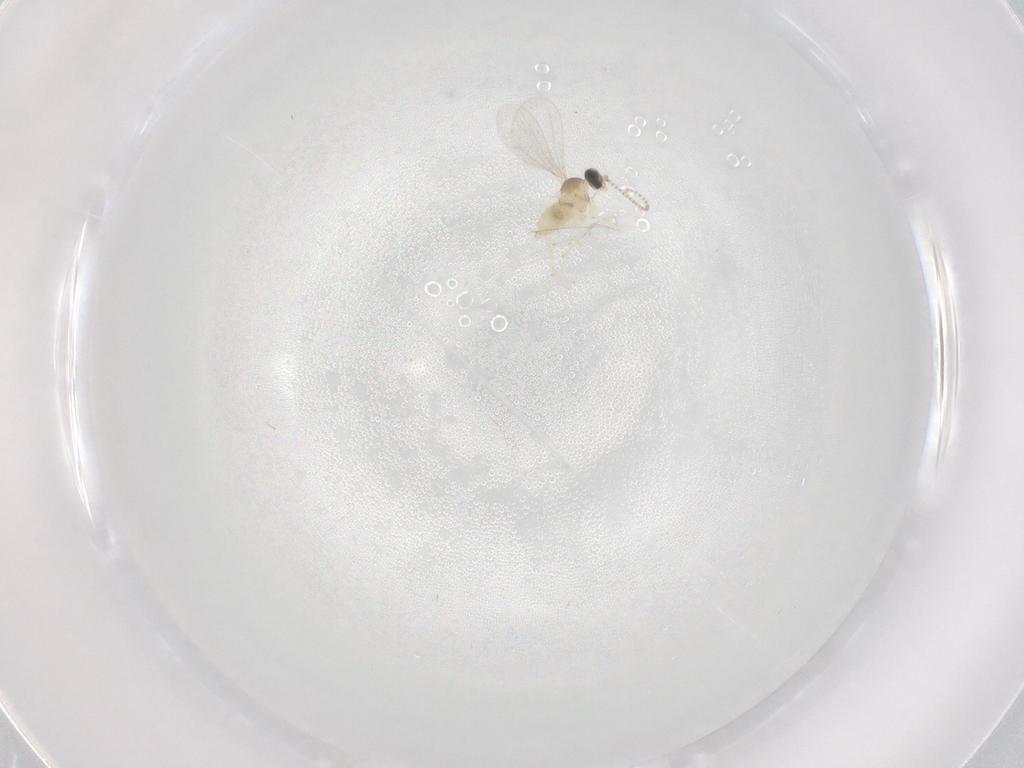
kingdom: Animalia
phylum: Arthropoda
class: Insecta
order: Diptera
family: Cecidomyiidae
